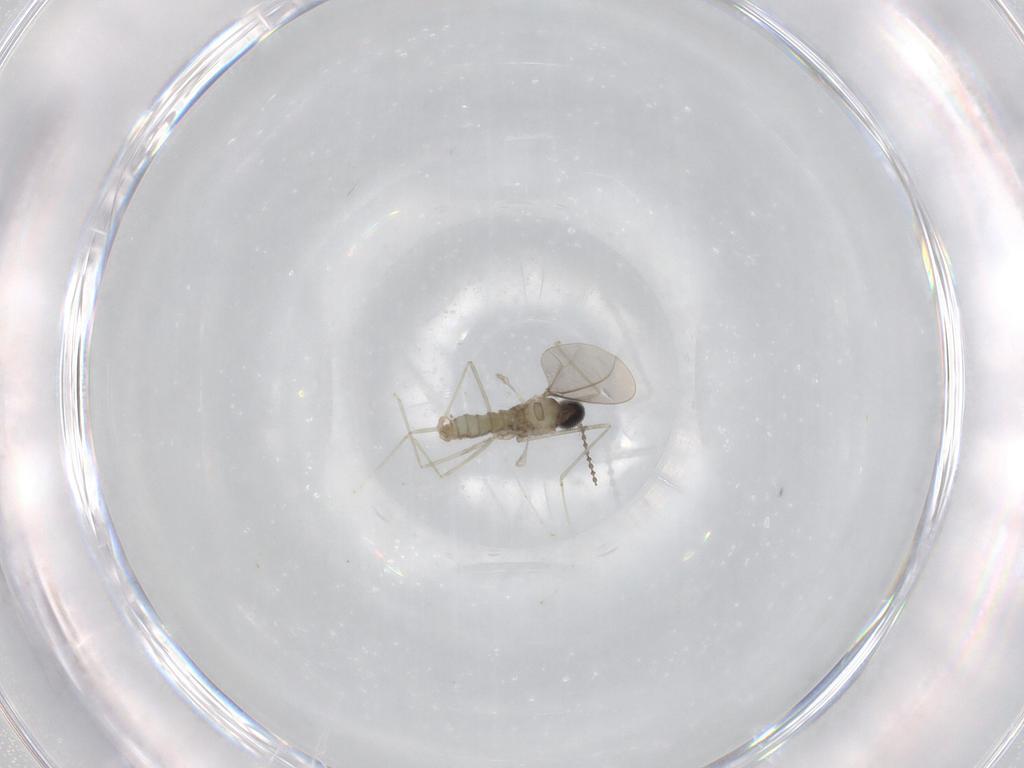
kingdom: Animalia
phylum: Arthropoda
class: Insecta
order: Diptera
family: Cecidomyiidae
